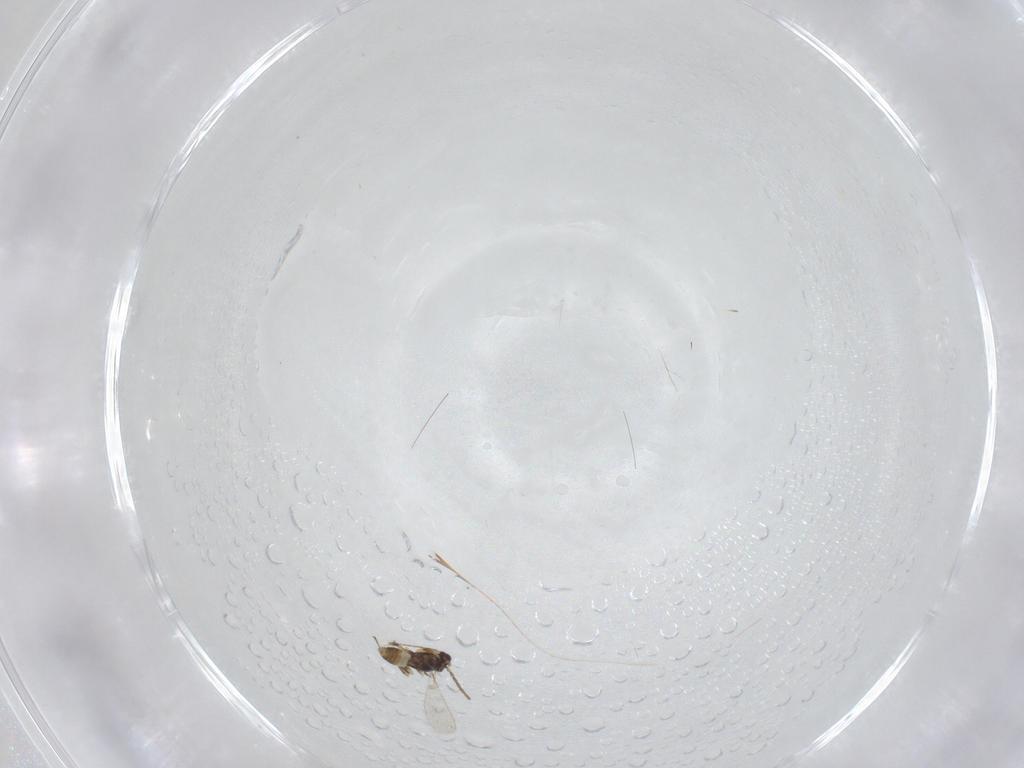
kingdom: Animalia
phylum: Arthropoda
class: Insecta
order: Hymenoptera
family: Mymaridae
